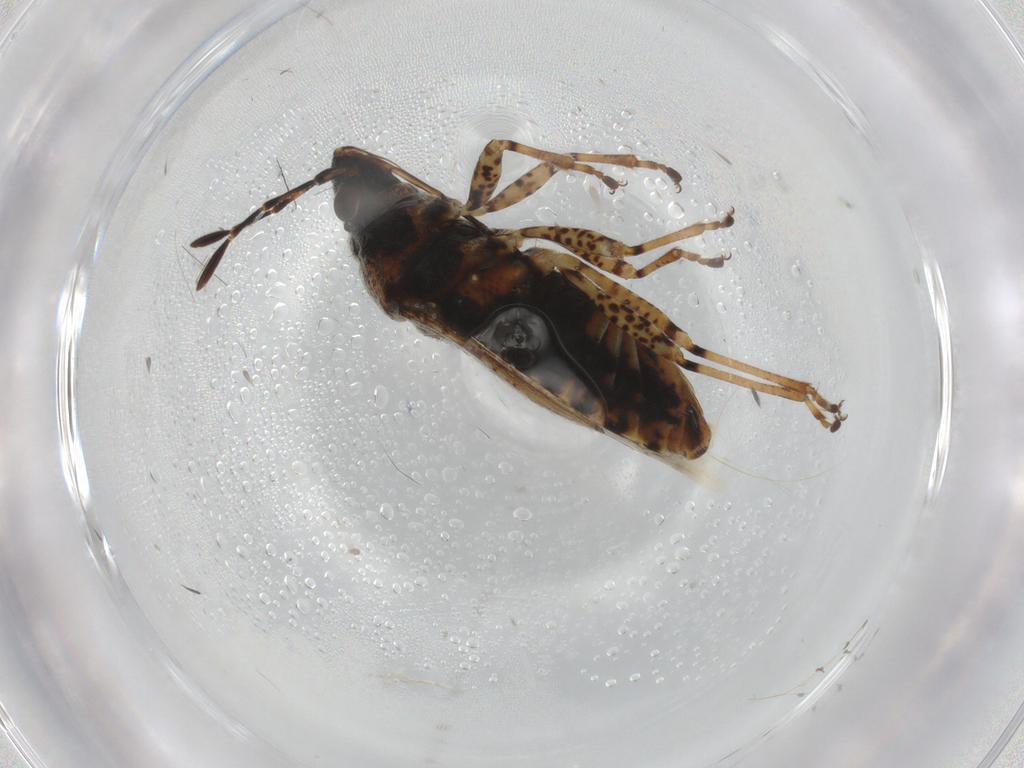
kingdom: Animalia
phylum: Arthropoda
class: Insecta
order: Hemiptera
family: Lygaeidae
